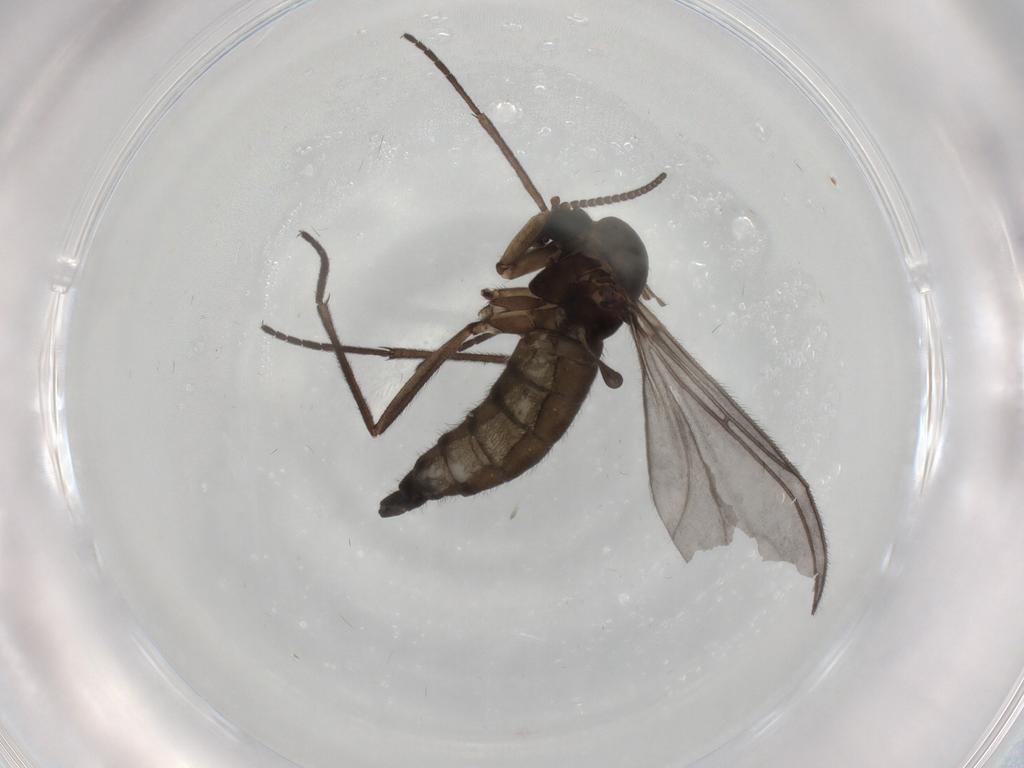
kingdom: Animalia
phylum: Arthropoda
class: Insecta
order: Diptera
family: Sciaridae
